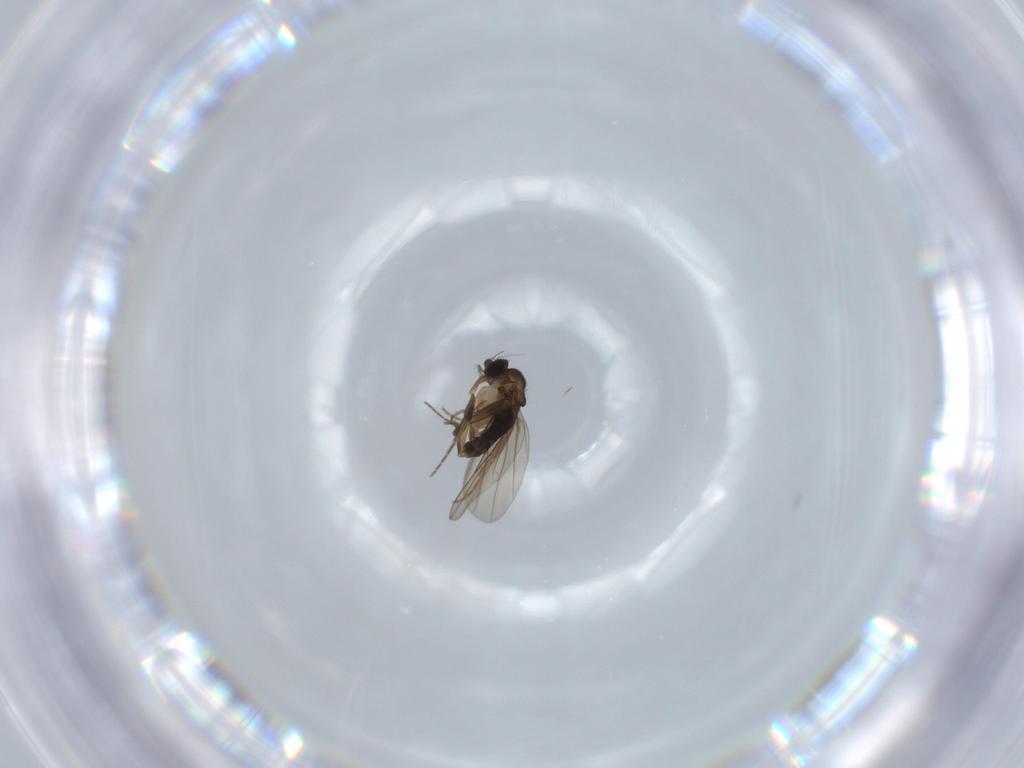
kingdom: Animalia
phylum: Arthropoda
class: Insecta
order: Diptera
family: Phoridae
